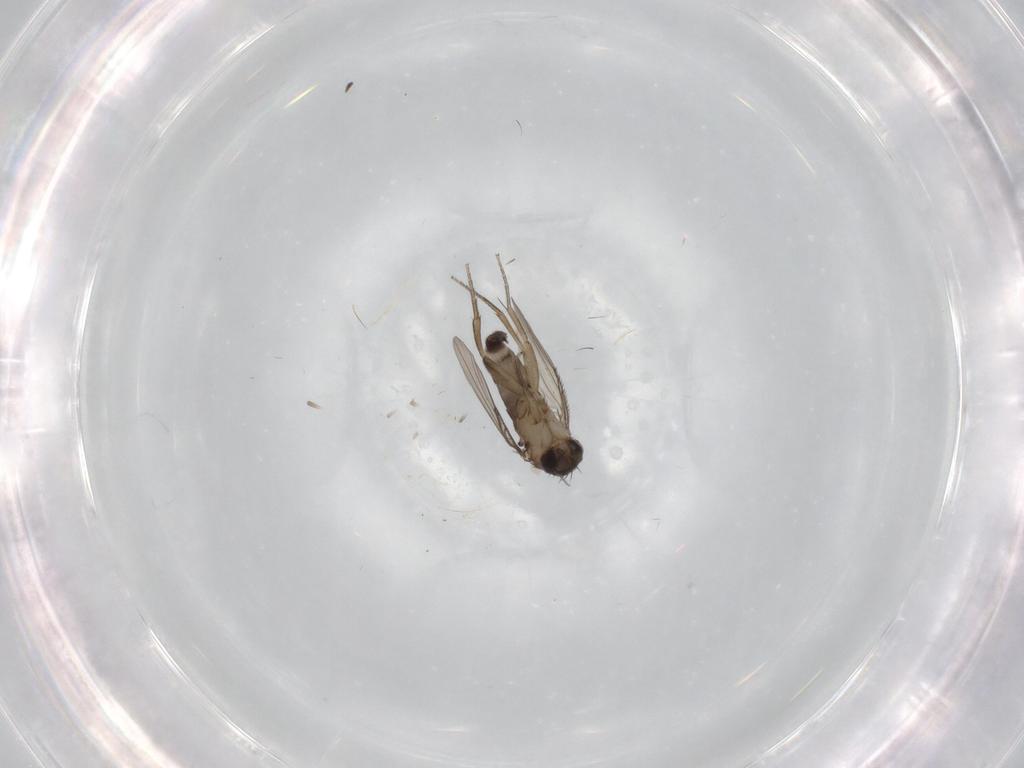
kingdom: Animalia
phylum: Arthropoda
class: Insecta
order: Diptera
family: Phoridae
